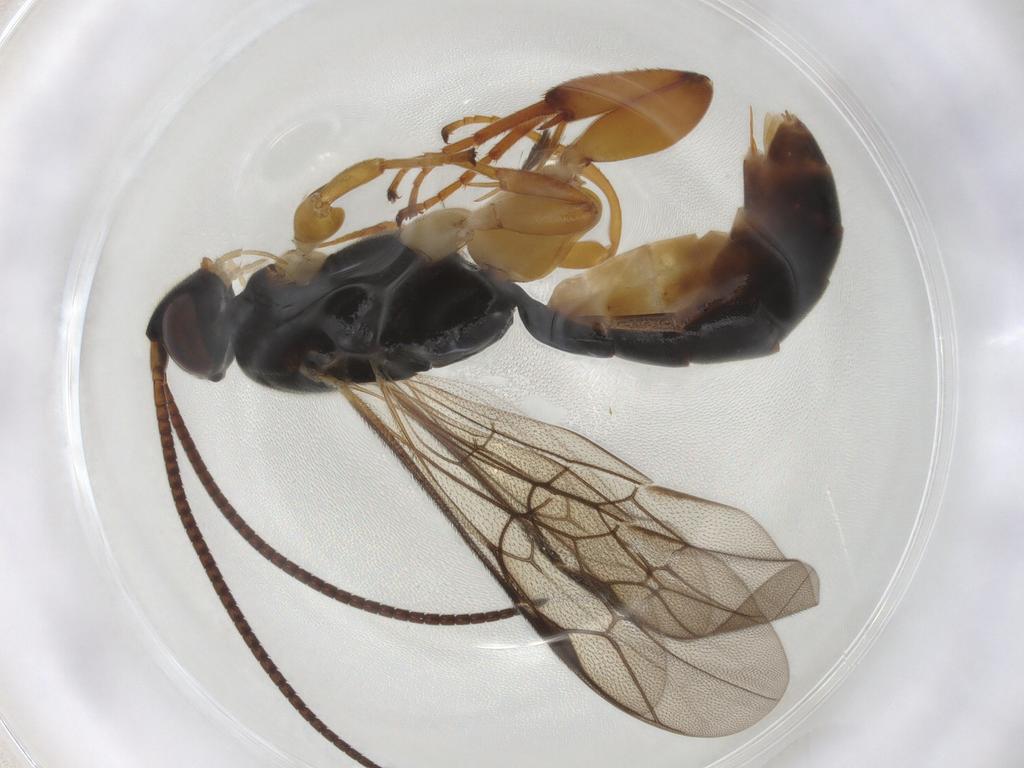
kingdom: Animalia
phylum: Arthropoda
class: Insecta
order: Hymenoptera
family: Ichneumonidae
